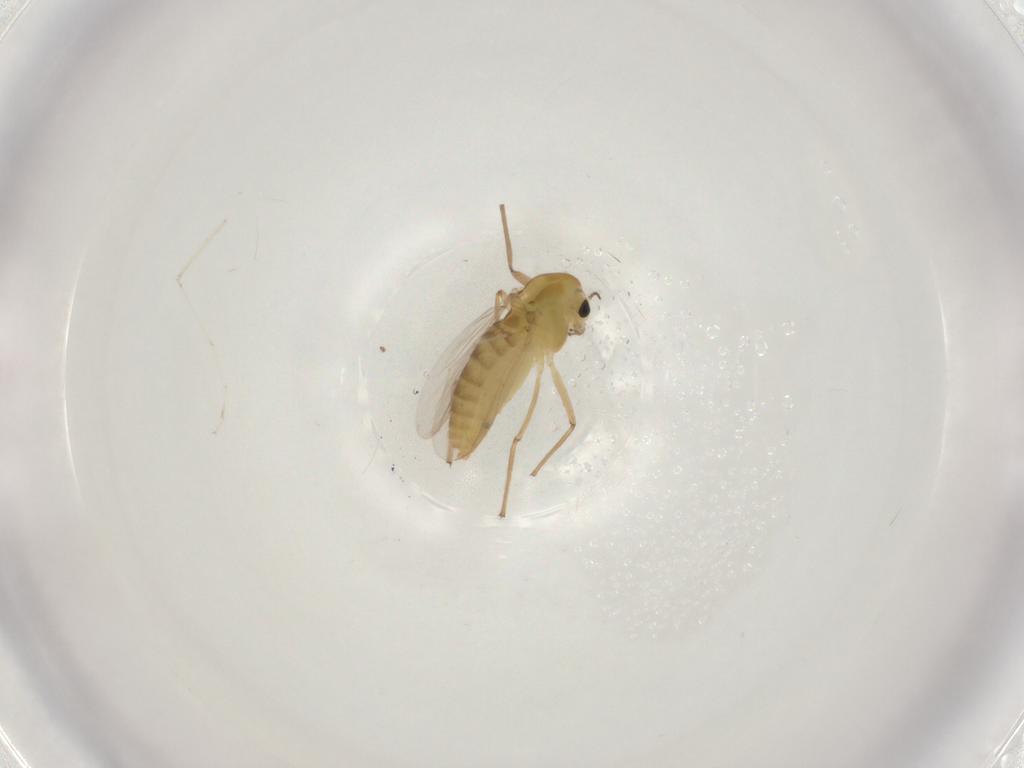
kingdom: Animalia
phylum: Arthropoda
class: Insecta
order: Diptera
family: Chironomidae
